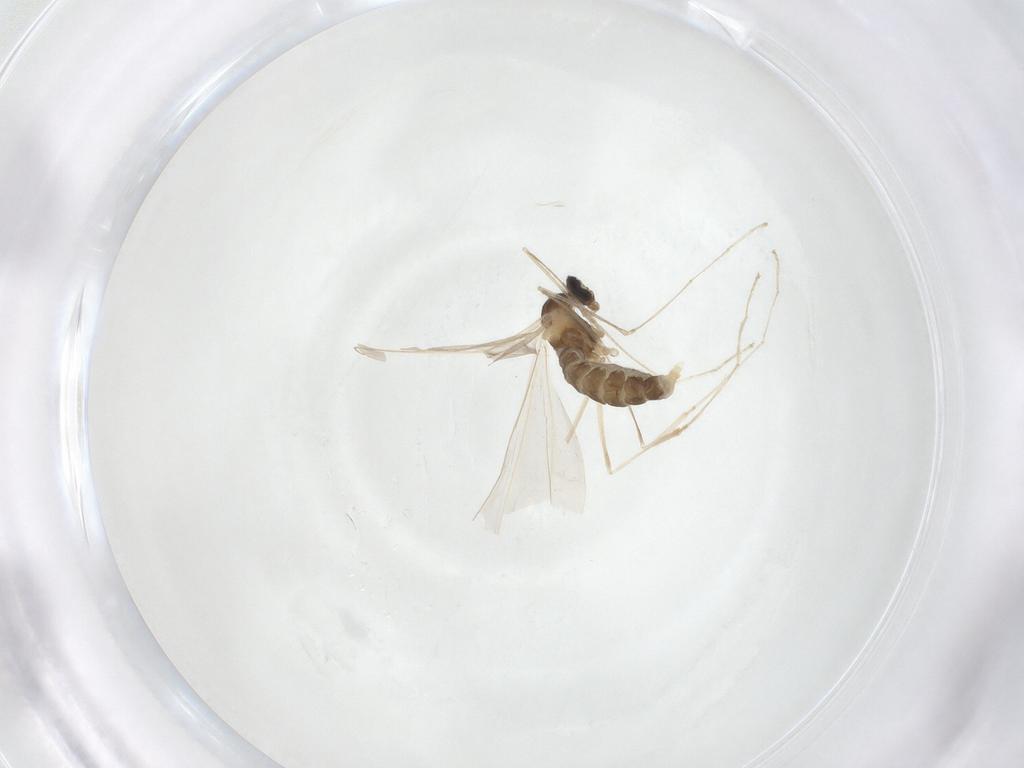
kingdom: Animalia
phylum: Arthropoda
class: Insecta
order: Diptera
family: Cecidomyiidae
